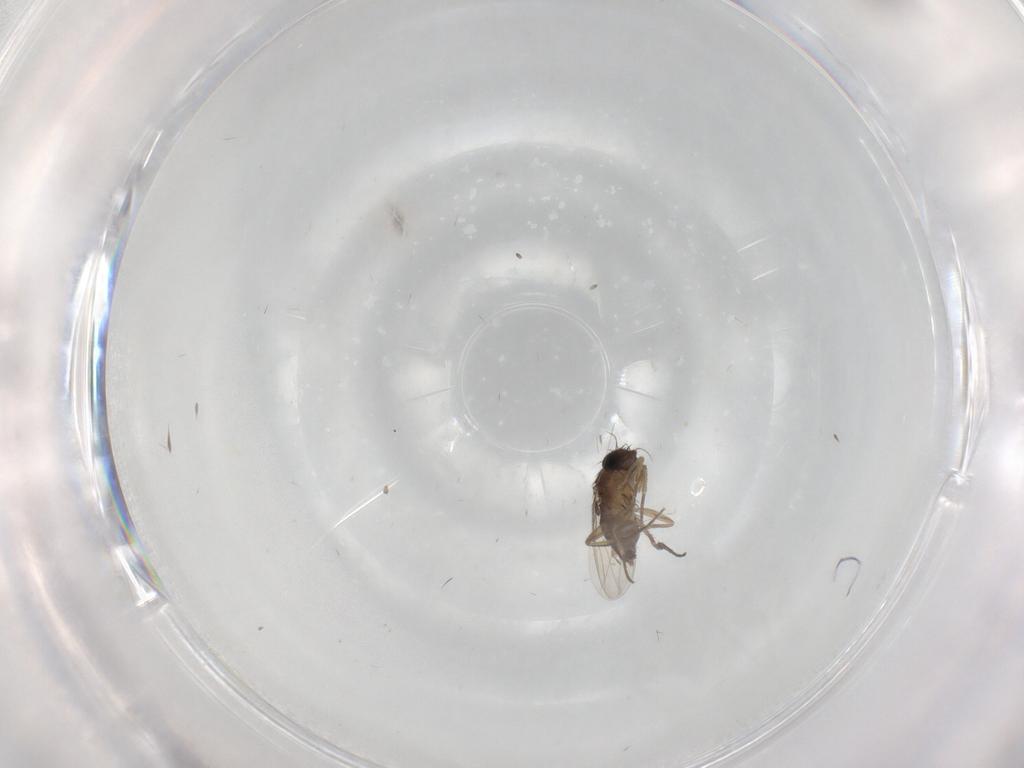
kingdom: Animalia
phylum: Arthropoda
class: Insecta
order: Diptera
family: Phoridae
